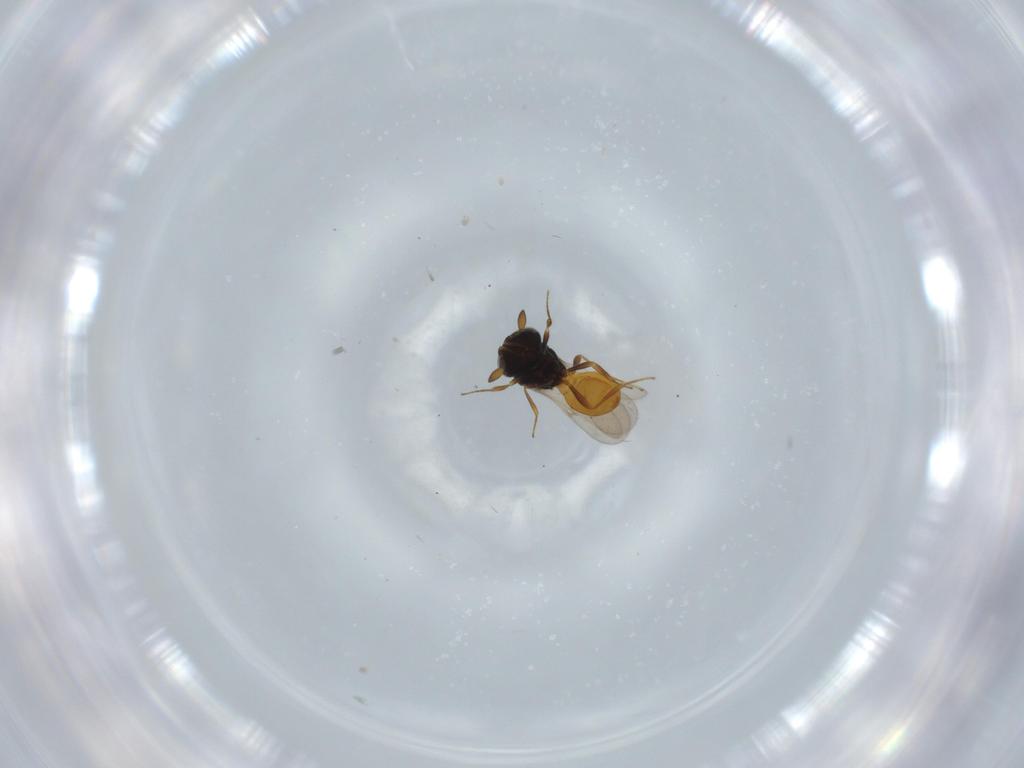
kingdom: Animalia
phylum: Arthropoda
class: Insecta
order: Hymenoptera
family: Scelionidae
